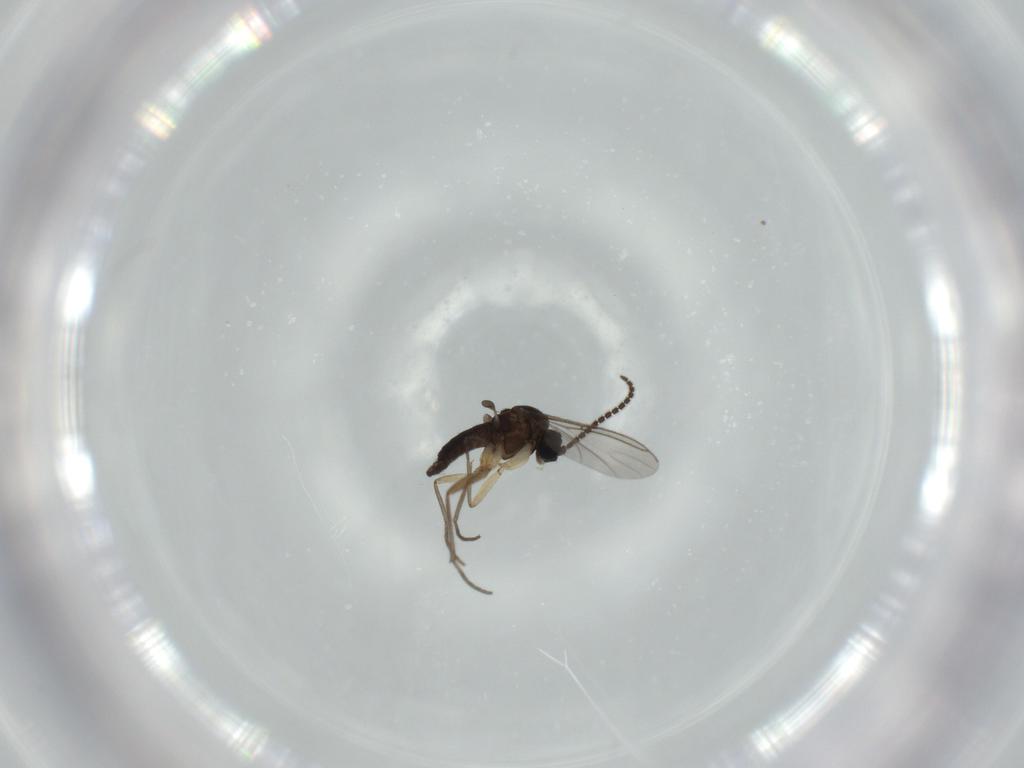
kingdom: Animalia
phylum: Arthropoda
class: Insecta
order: Diptera
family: Sciaridae
